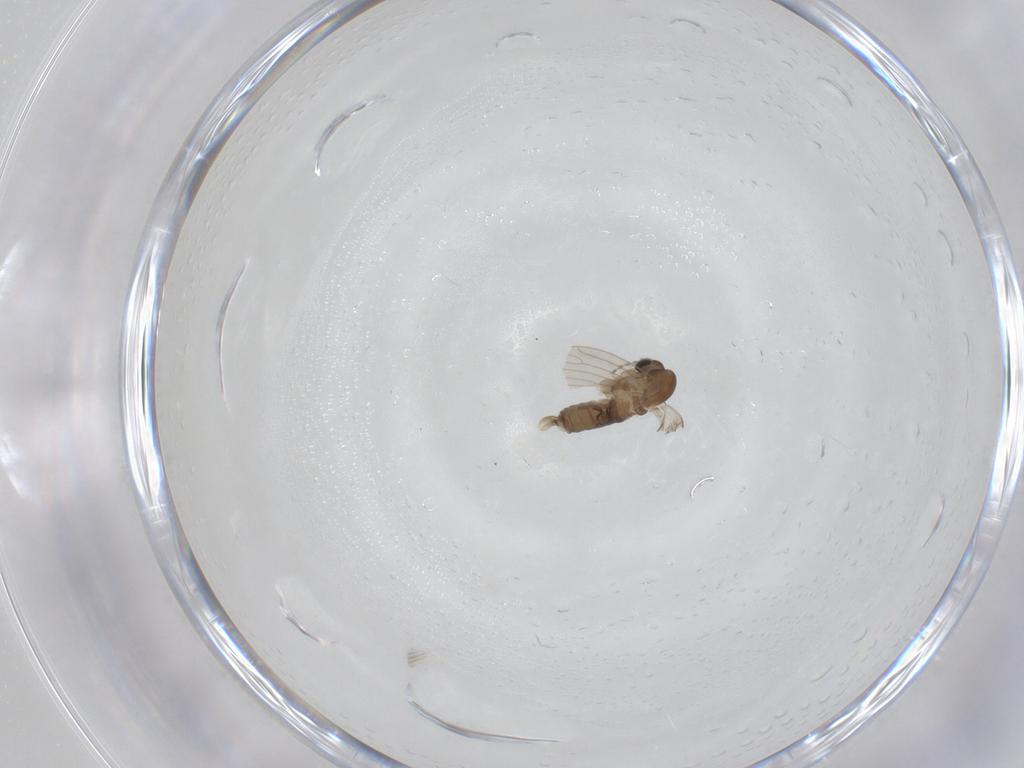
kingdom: Animalia
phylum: Arthropoda
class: Insecta
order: Diptera
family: Psychodidae
